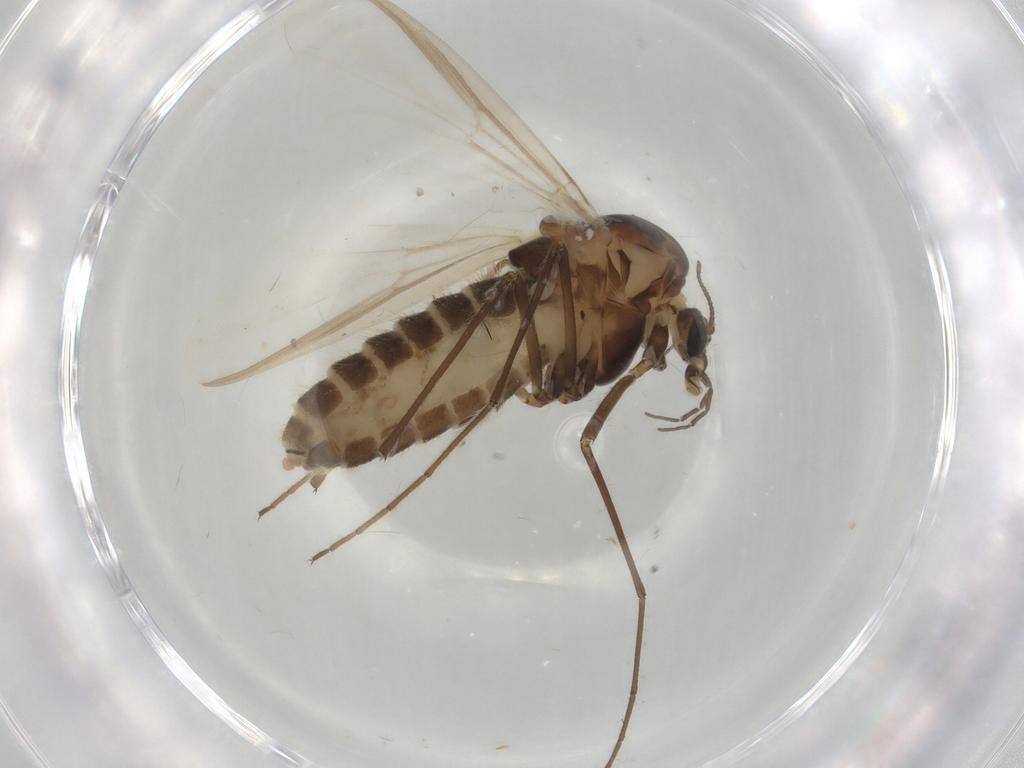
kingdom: Animalia
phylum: Arthropoda
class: Insecta
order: Diptera
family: Chironomidae
